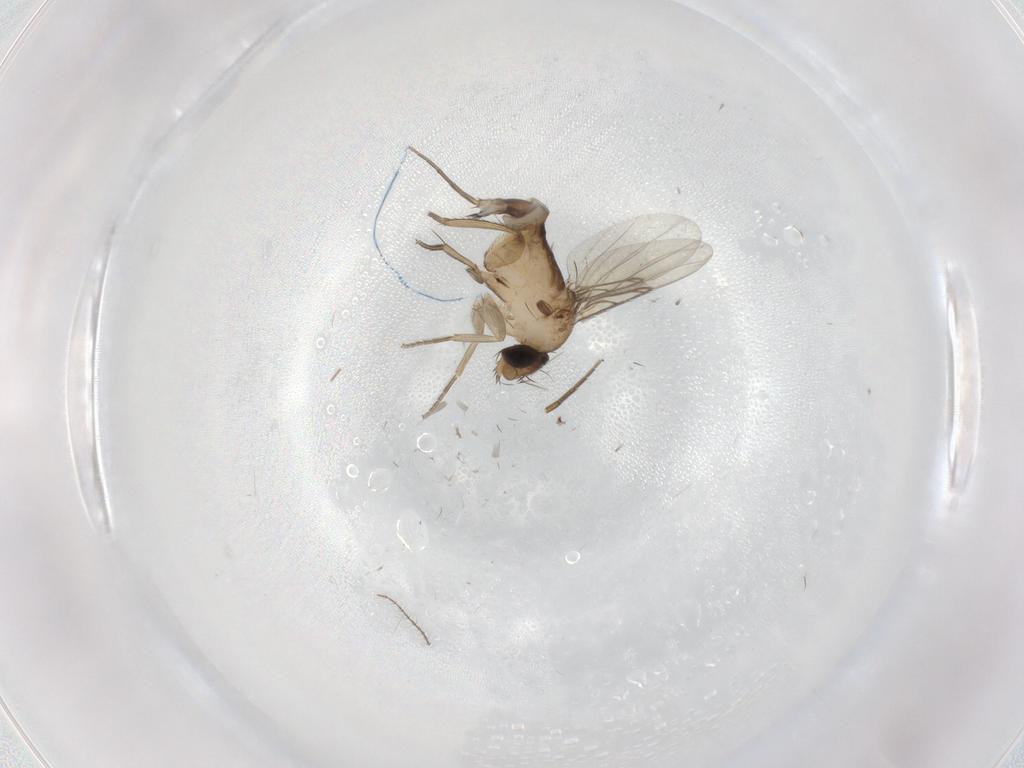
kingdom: Animalia
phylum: Arthropoda
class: Insecta
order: Diptera
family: Phoridae
